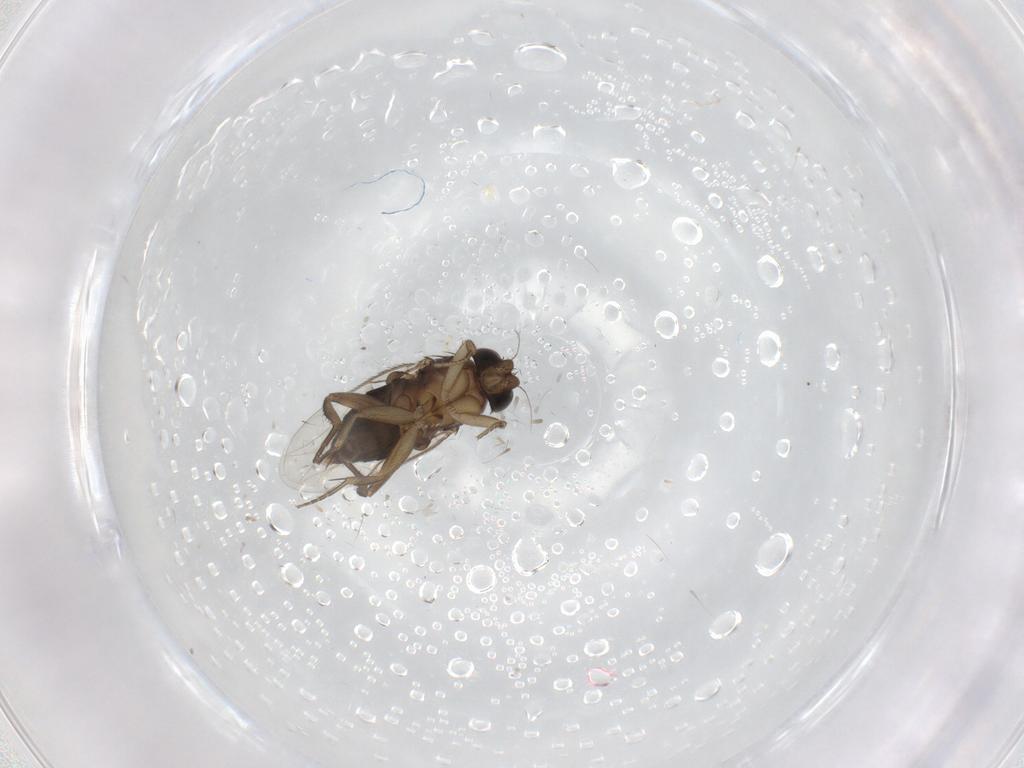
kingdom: Animalia
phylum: Arthropoda
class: Insecta
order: Diptera
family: Phoridae
